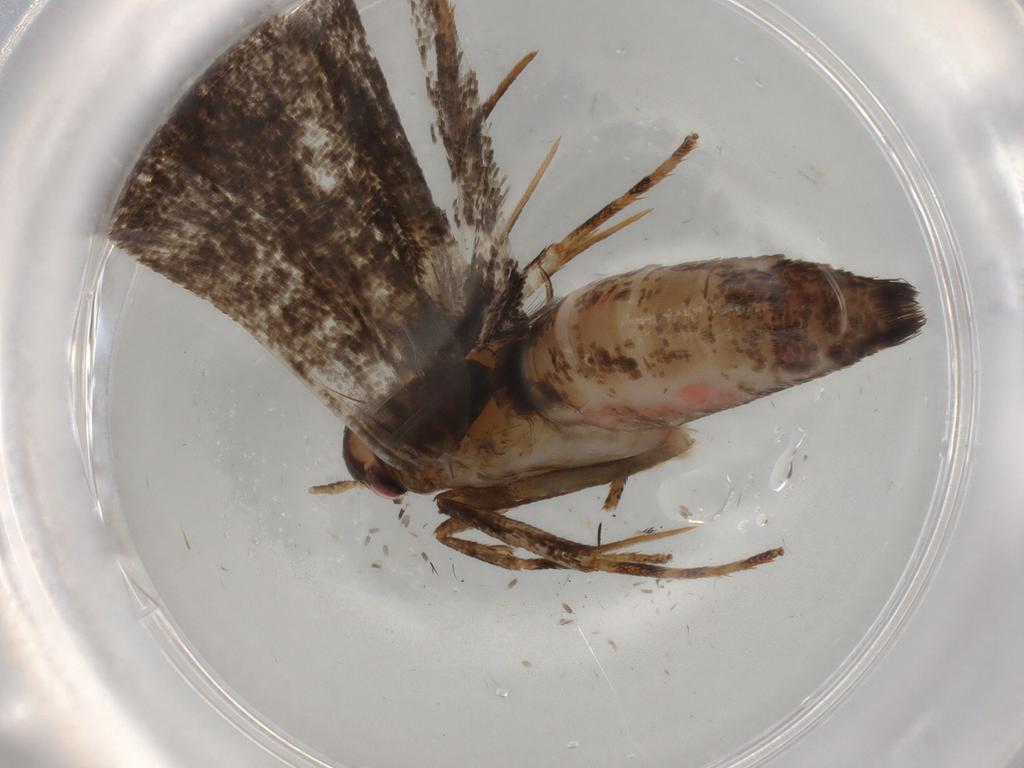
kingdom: Animalia
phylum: Arthropoda
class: Insecta
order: Lepidoptera
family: Gelechiidae
